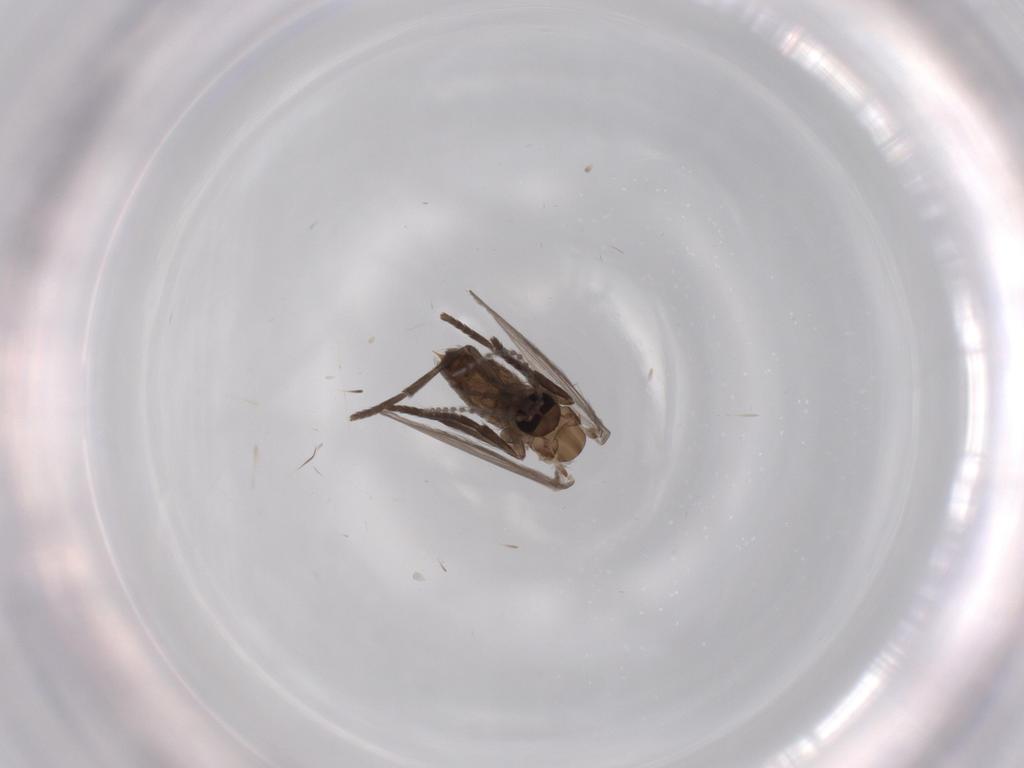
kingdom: Animalia
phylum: Arthropoda
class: Insecta
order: Diptera
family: Psychodidae
